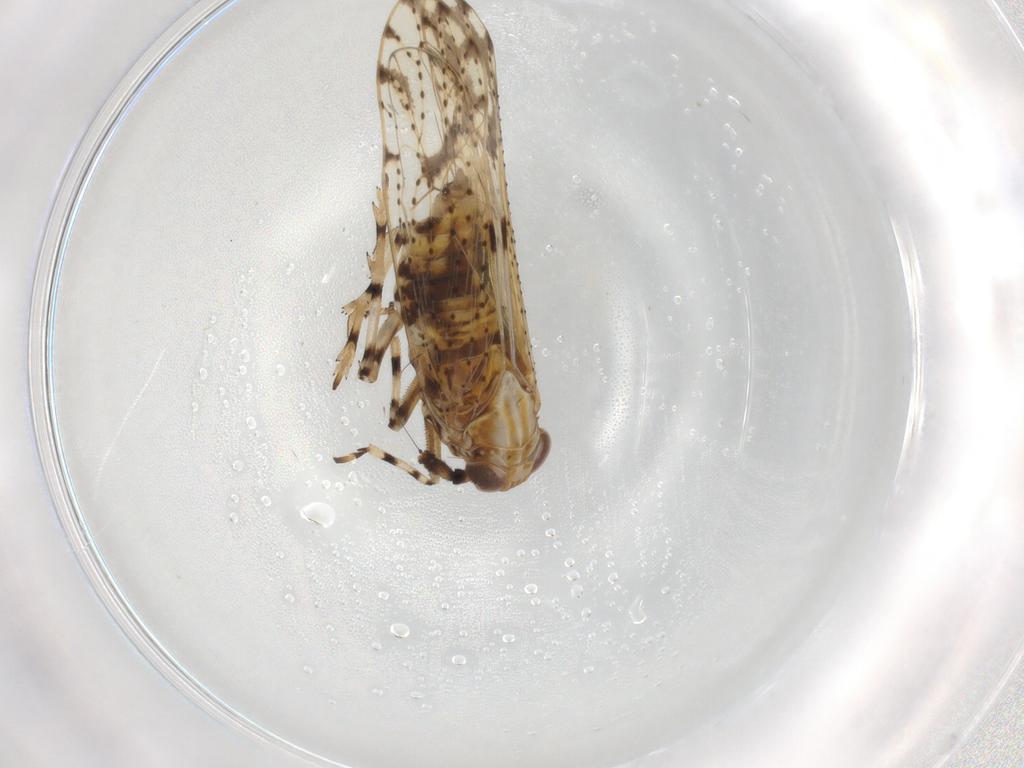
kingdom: Animalia
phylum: Arthropoda
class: Insecta
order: Hemiptera
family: Delphacidae
